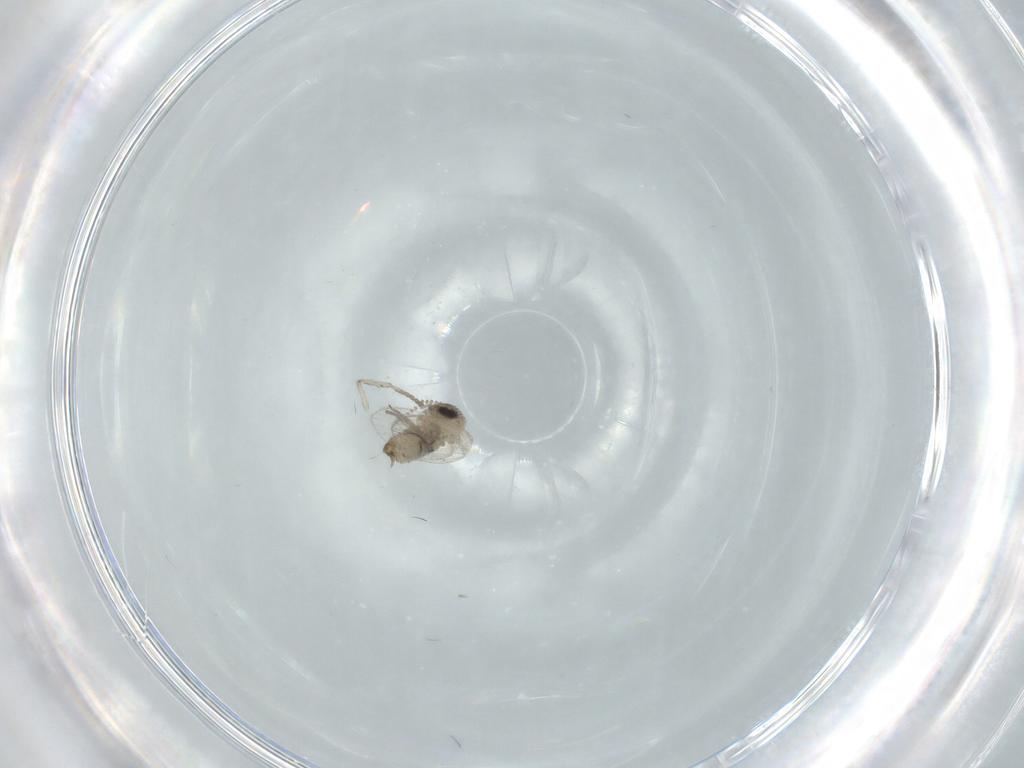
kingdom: Animalia
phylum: Arthropoda
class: Insecta
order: Diptera
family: Psychodidae
